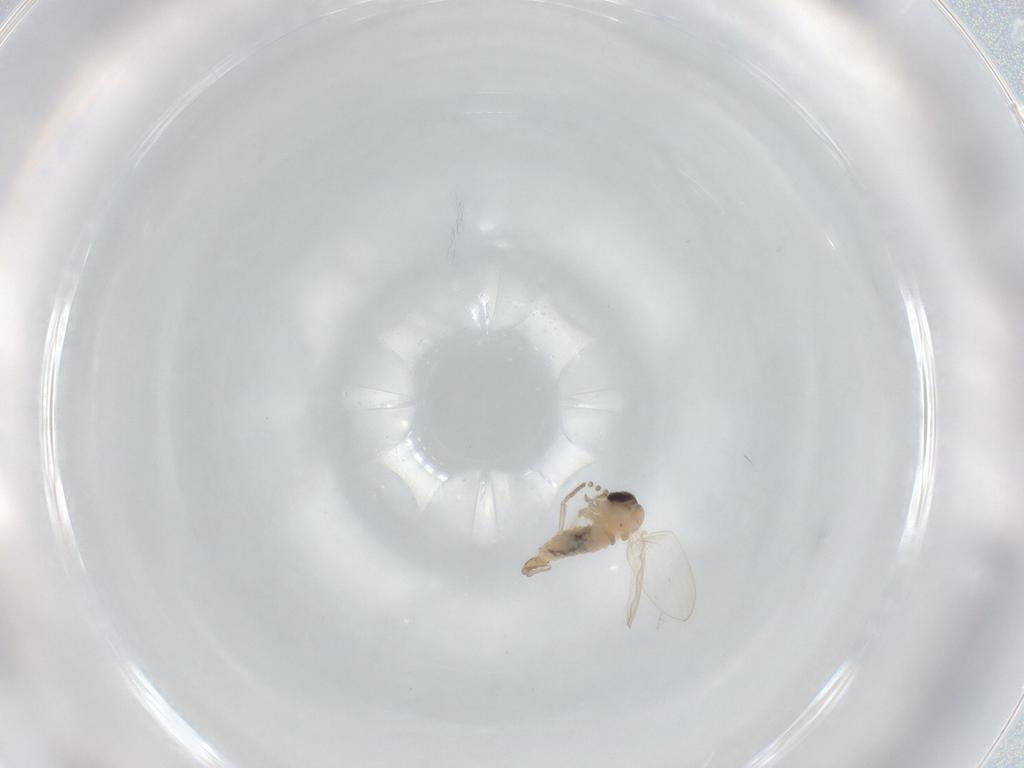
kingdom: Animalia
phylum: Arthropoda
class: Insecta
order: Diptera
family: Psychodidae
